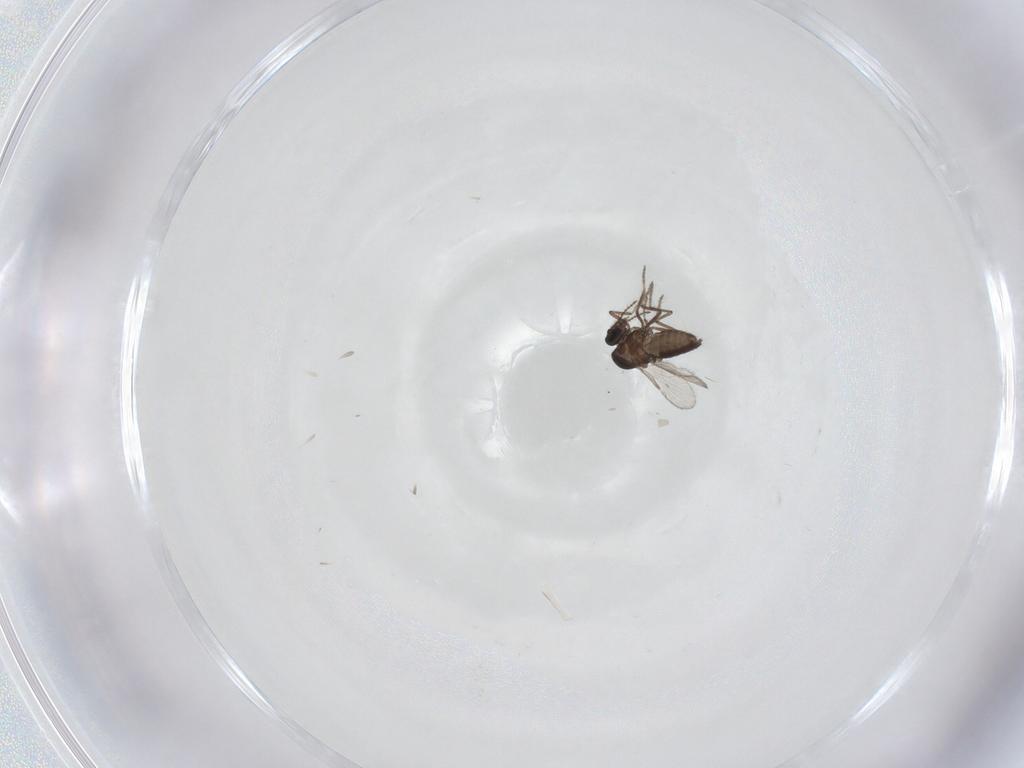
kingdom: Animalia
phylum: Arthropoda
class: Insecta
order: Diptera
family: Ceratopogonidae
